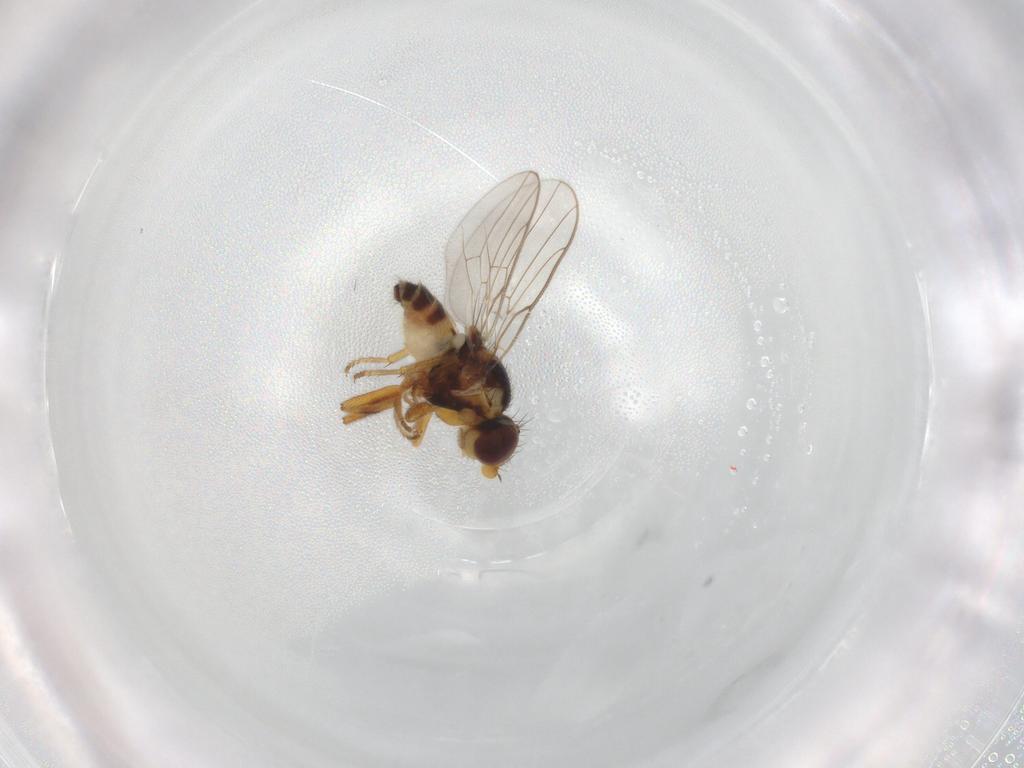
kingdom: Animalia
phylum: Arthropoda
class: Insecta
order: Diptera
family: Chloropidae
